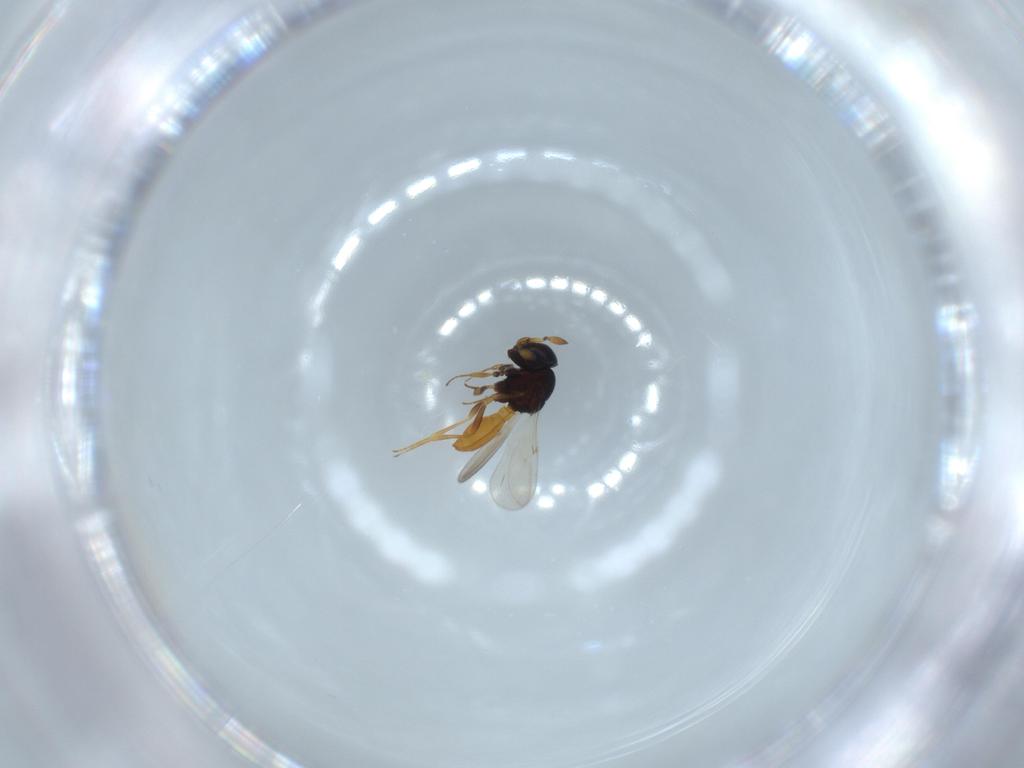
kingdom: Animalia
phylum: Arthropoda
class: Insecta
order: Hymenoptera
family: Scelionidae
